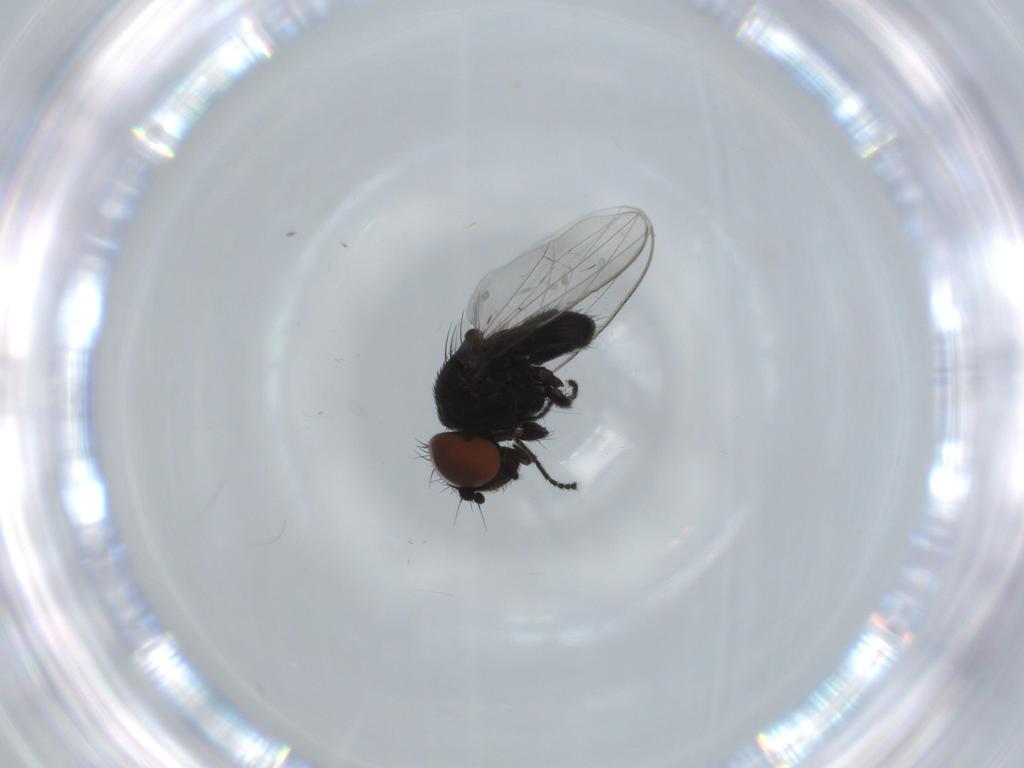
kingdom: Animalia
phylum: Arthropoda
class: Insecta
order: Diptera
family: Milichiidae
